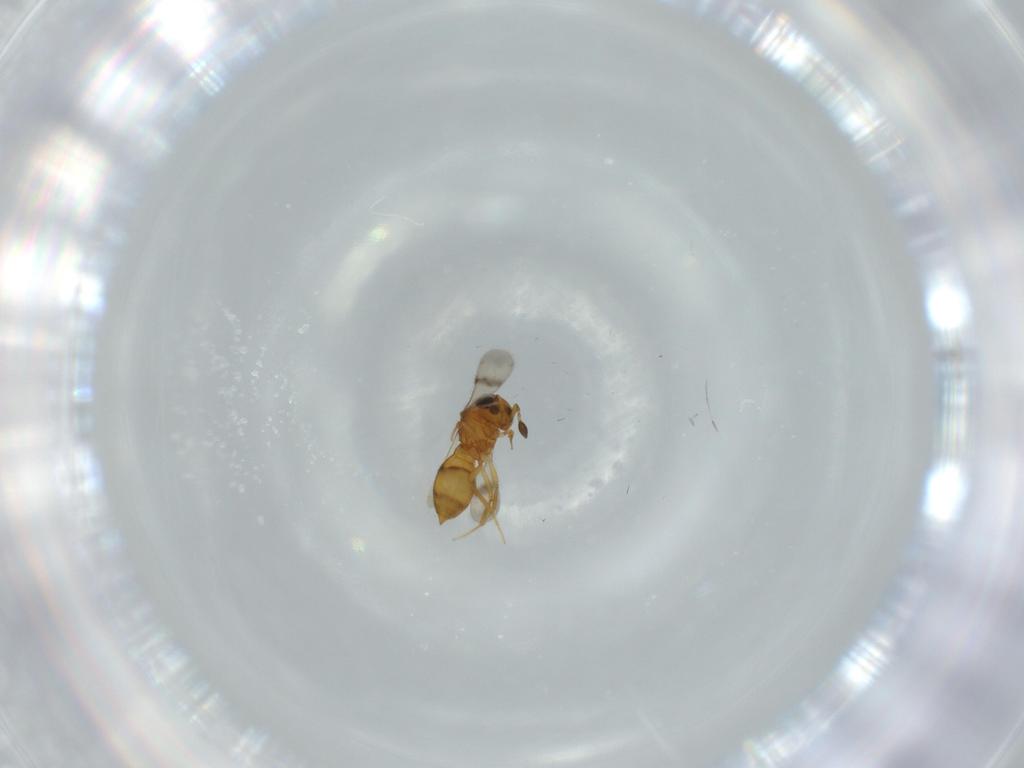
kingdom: Animalia
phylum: Arthropoda
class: Insecta
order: Hymenoptera
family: Scelionidae
